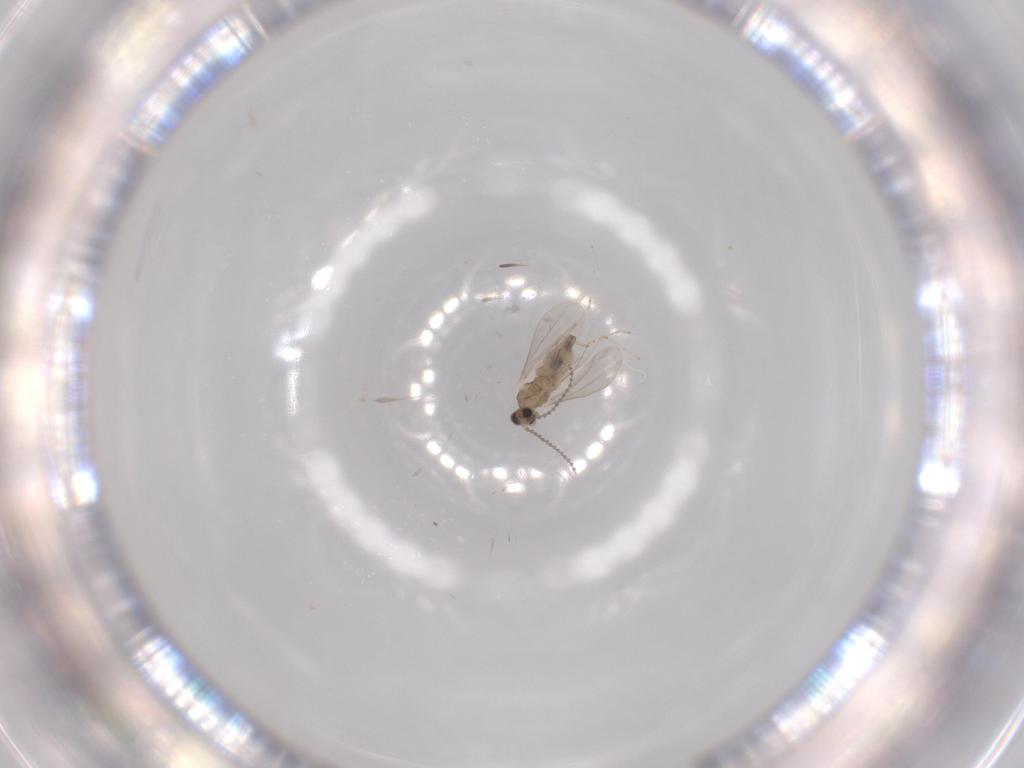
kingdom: Animalia
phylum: Arthropoda
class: Insecta
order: Diptera
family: Cecidomyiidae
